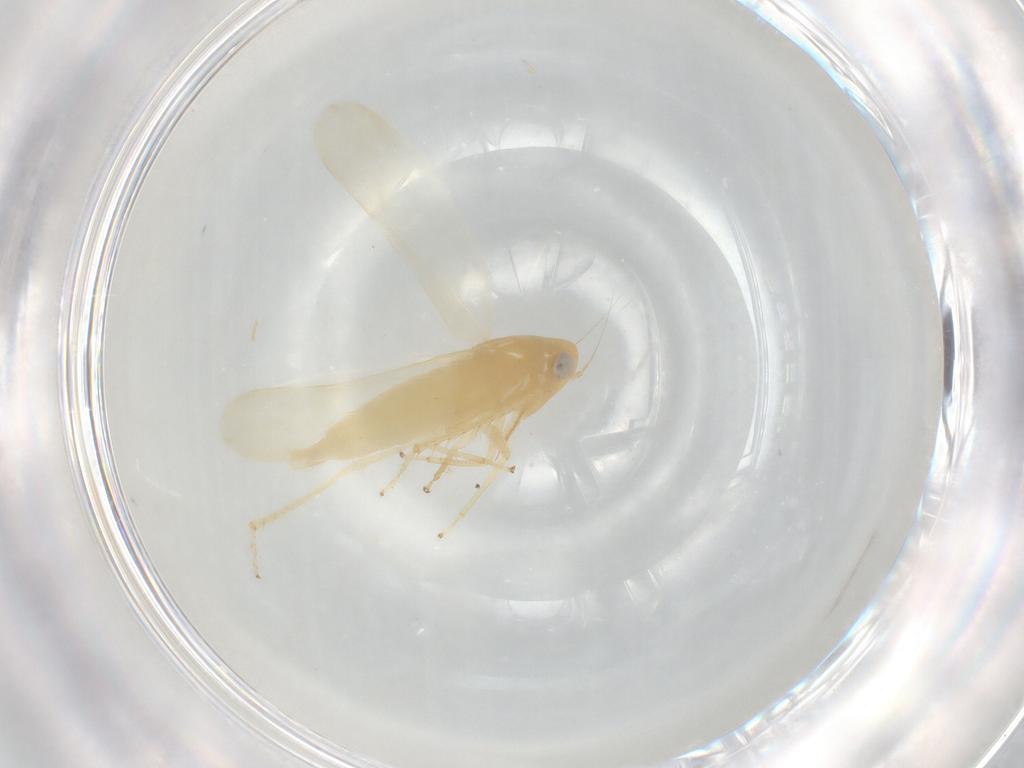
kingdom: Animalia
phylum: Arthropoda
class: Insecta
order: Hemiptera
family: Cicadellidae
